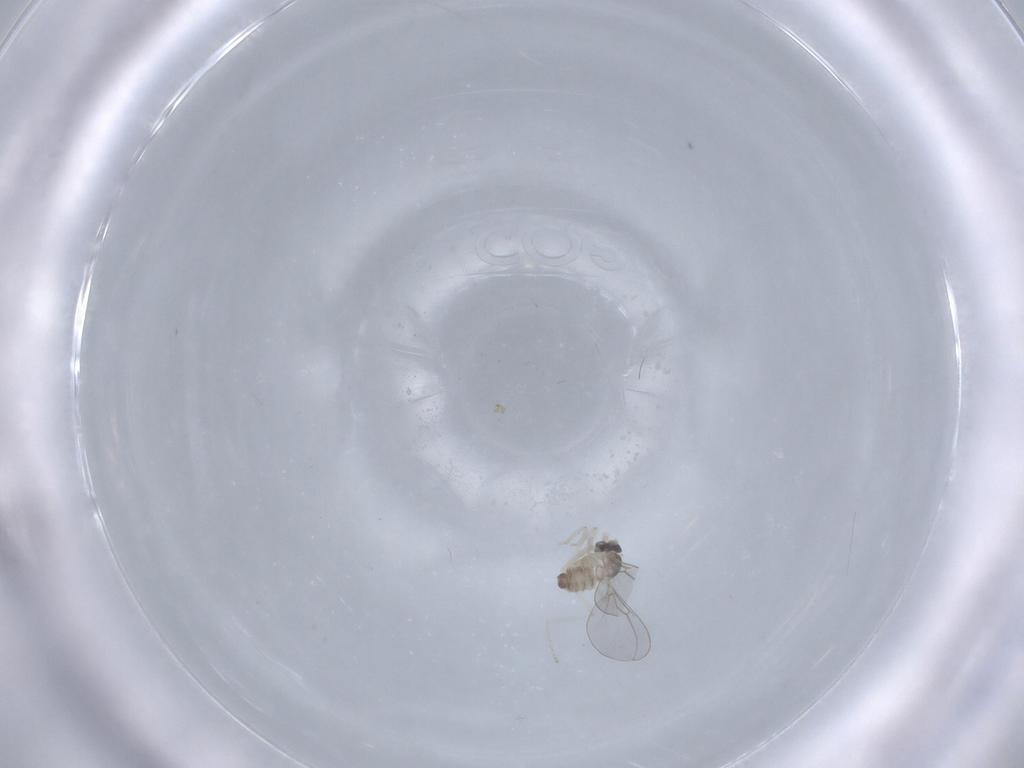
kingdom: Animalia
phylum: Arthropoda
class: Insecta
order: Diptera
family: Cecidomyiidae
